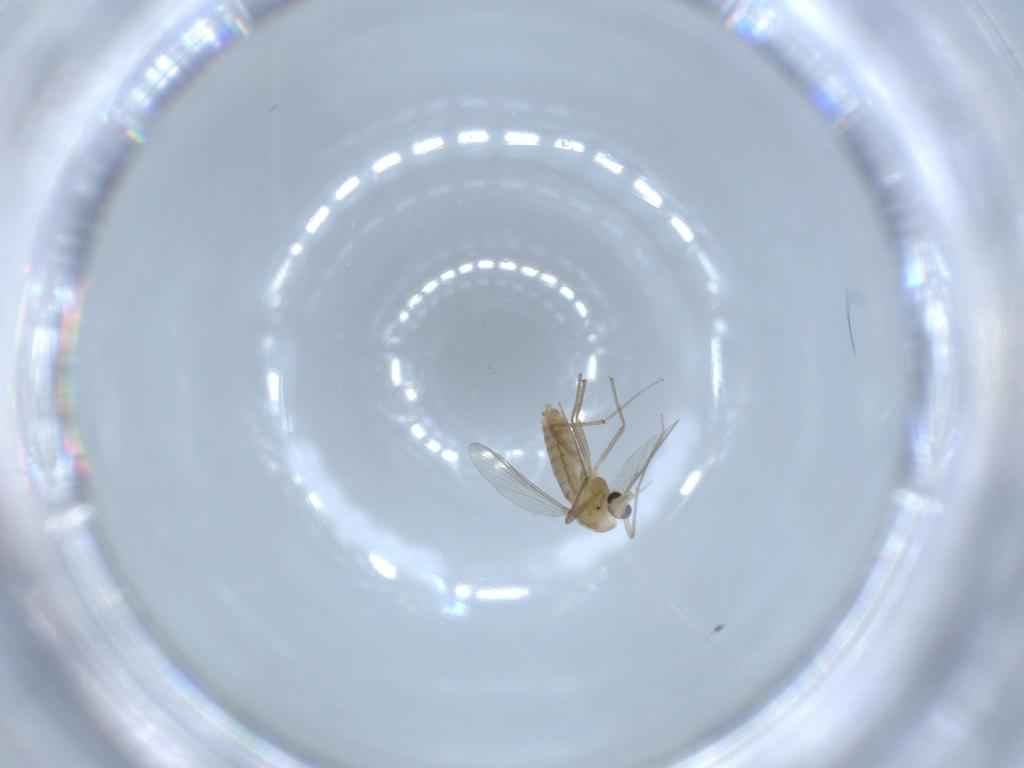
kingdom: Animalia
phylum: Arthropoda
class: Insecta
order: Diptera
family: Chironomidae
